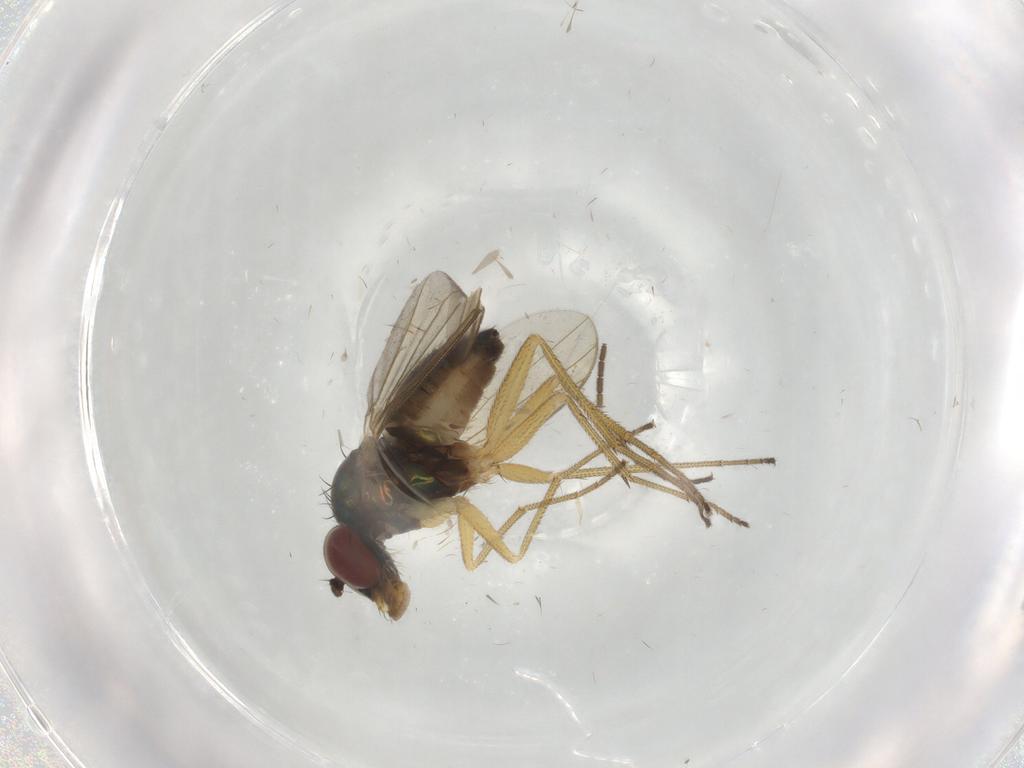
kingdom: Animalia
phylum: Arthropoda
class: Insecta
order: Diptera
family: Dolichopodidae
